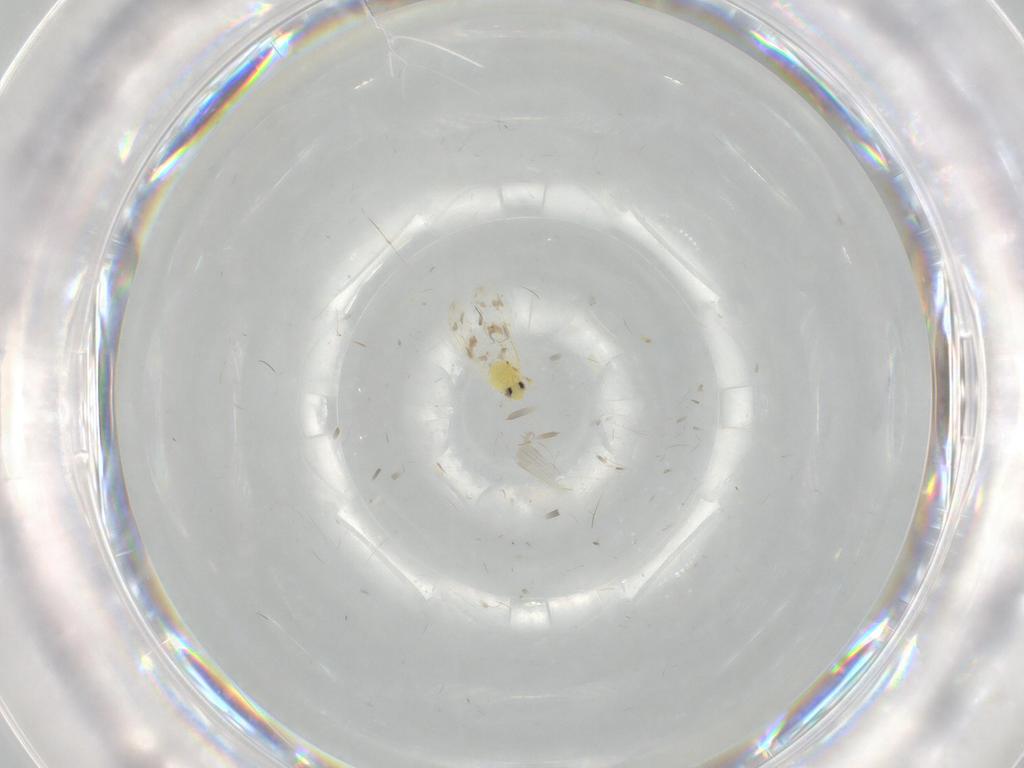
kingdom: Animalia
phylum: Arthropoda
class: Insecta
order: Hemiptera
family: Aleyrodidae
